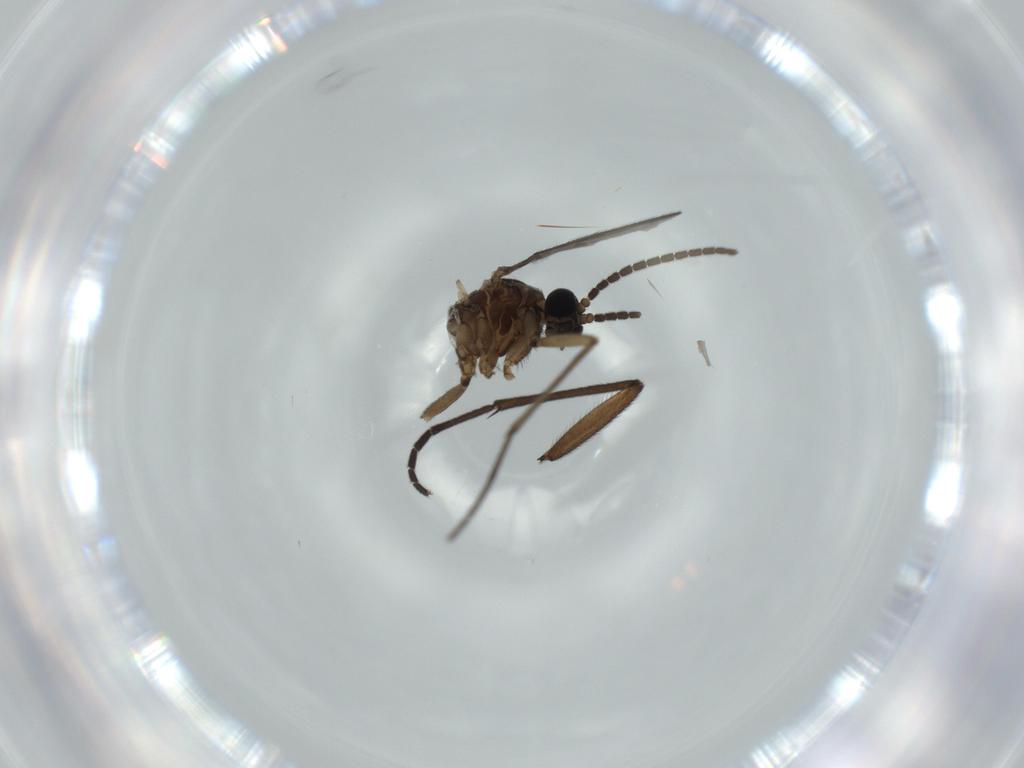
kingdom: Animalia
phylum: Arthropoda
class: Insecta
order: Diptera
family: Sciaridae
